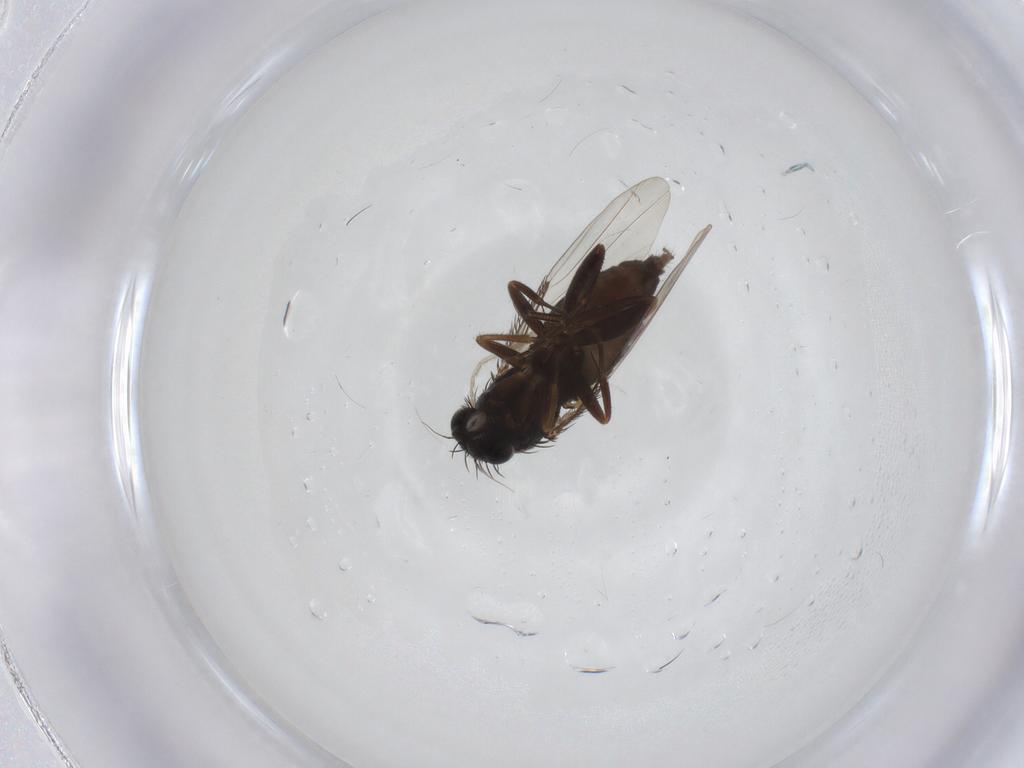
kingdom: Animalia
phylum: Arthropoda
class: Insecta
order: Diptera
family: Phoridae
